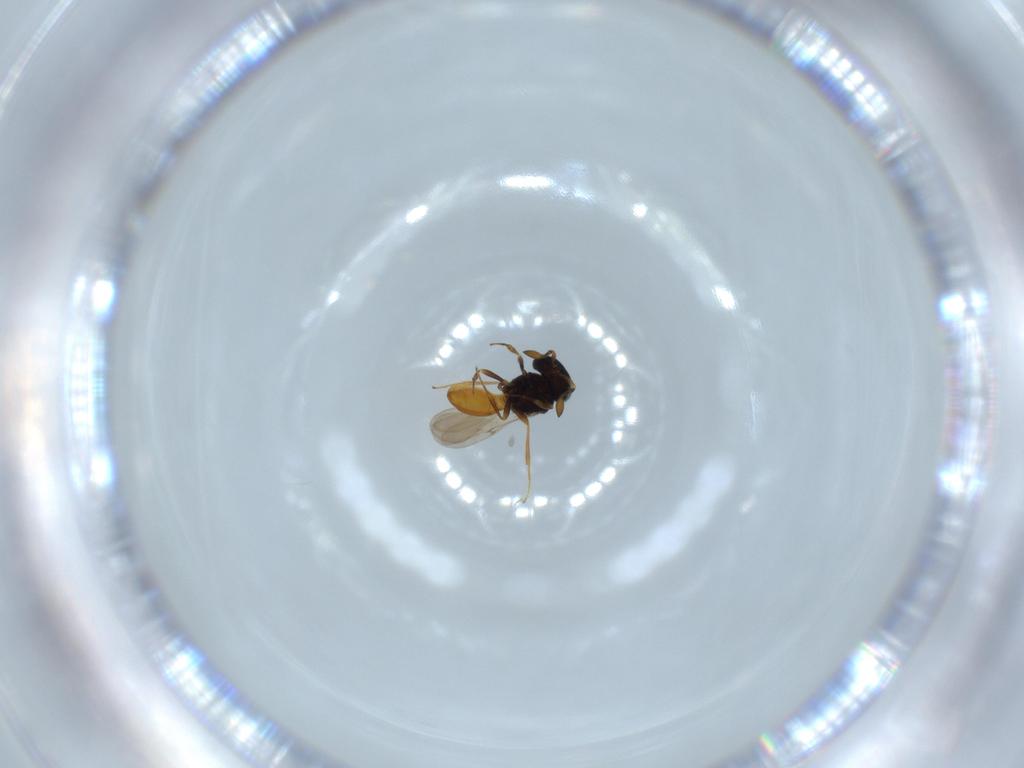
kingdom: Animalia
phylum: Arthropoda
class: Insecta
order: Hymenoptera
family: Scelionidae
